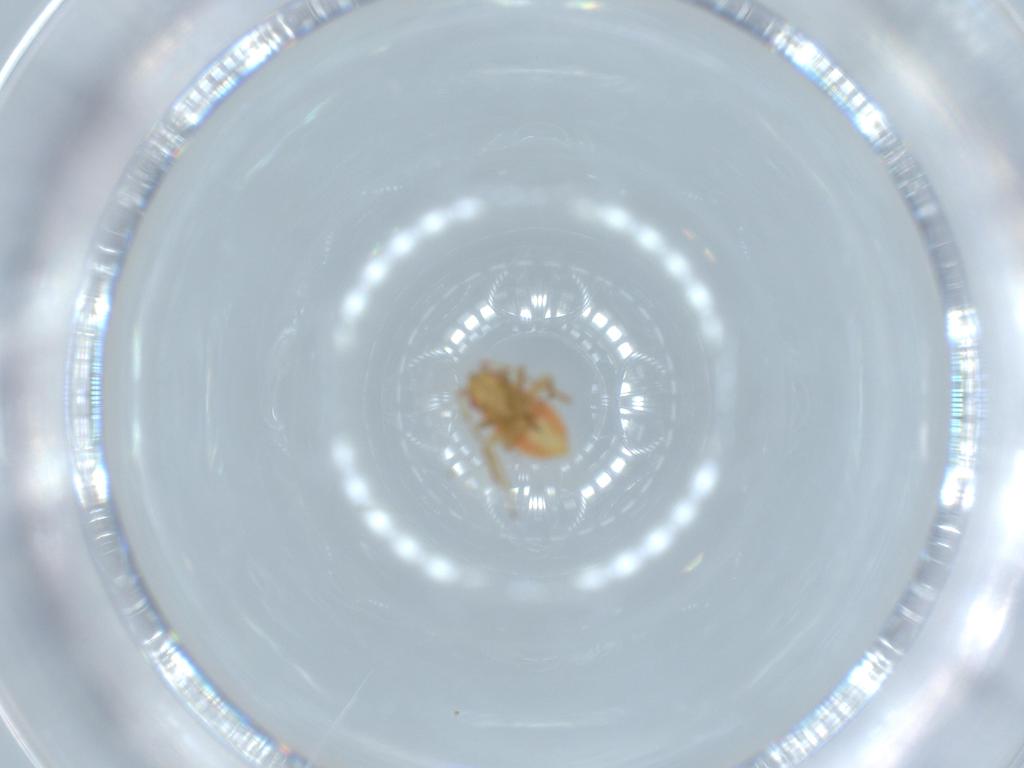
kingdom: Animalia
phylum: Arthropoda
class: Insecta
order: Hemiptera
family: Miridae
